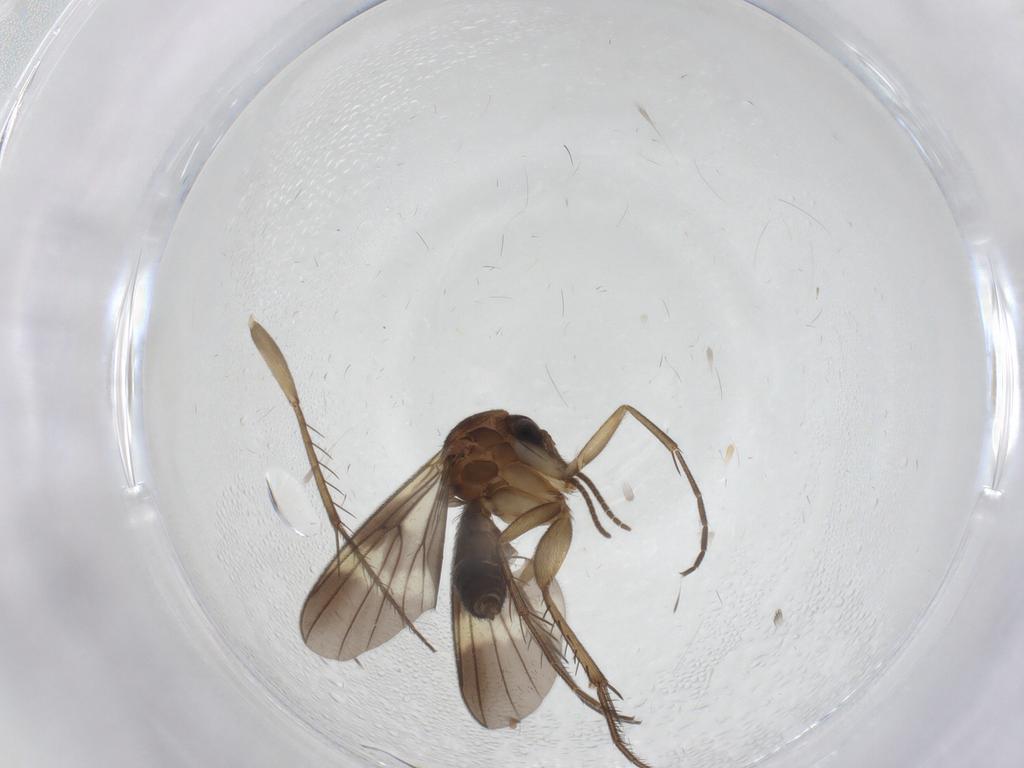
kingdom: Animalia
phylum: Arthropoda
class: Insecta
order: Diptera
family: Mycetophilidae
